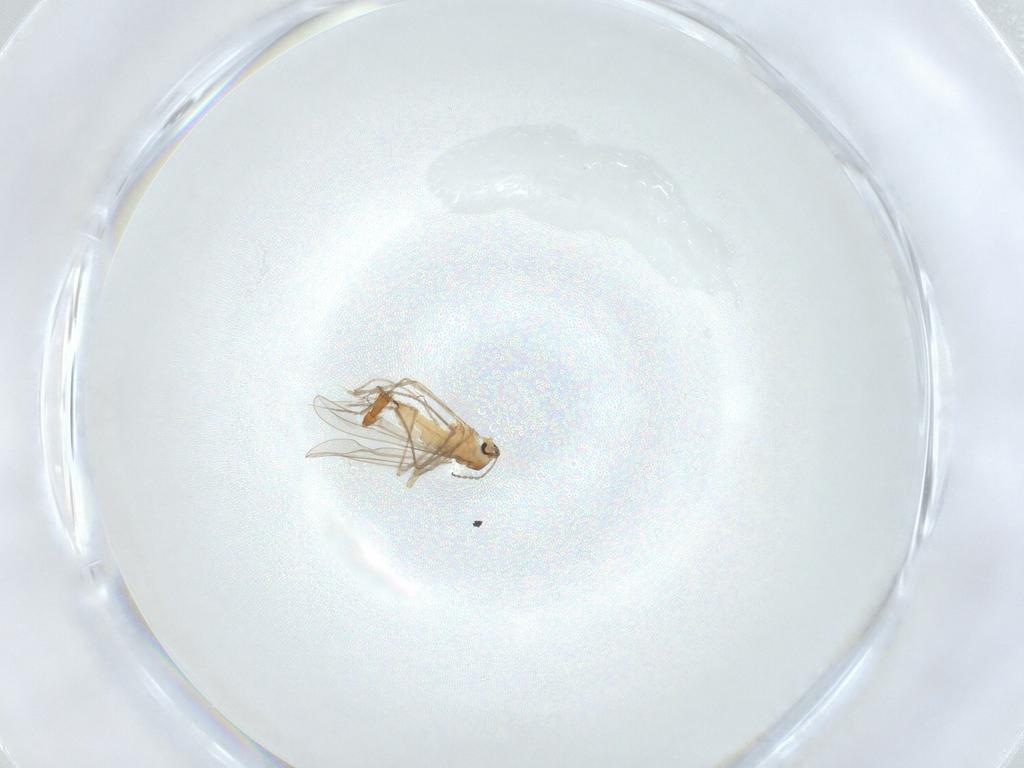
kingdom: Animalia
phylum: Arthropoda
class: Insecta
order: Diptera
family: Cecidomyiidae
